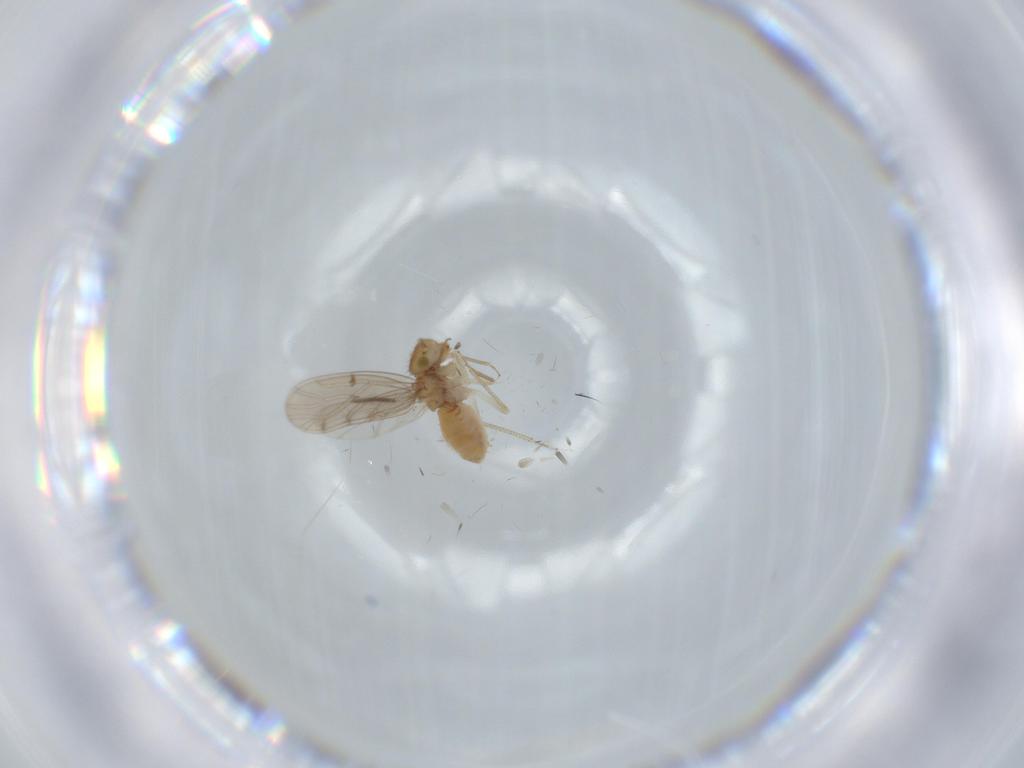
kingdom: Animalia
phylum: Arthropoda
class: Insecta
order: Psocodea
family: Ectopsocidae
